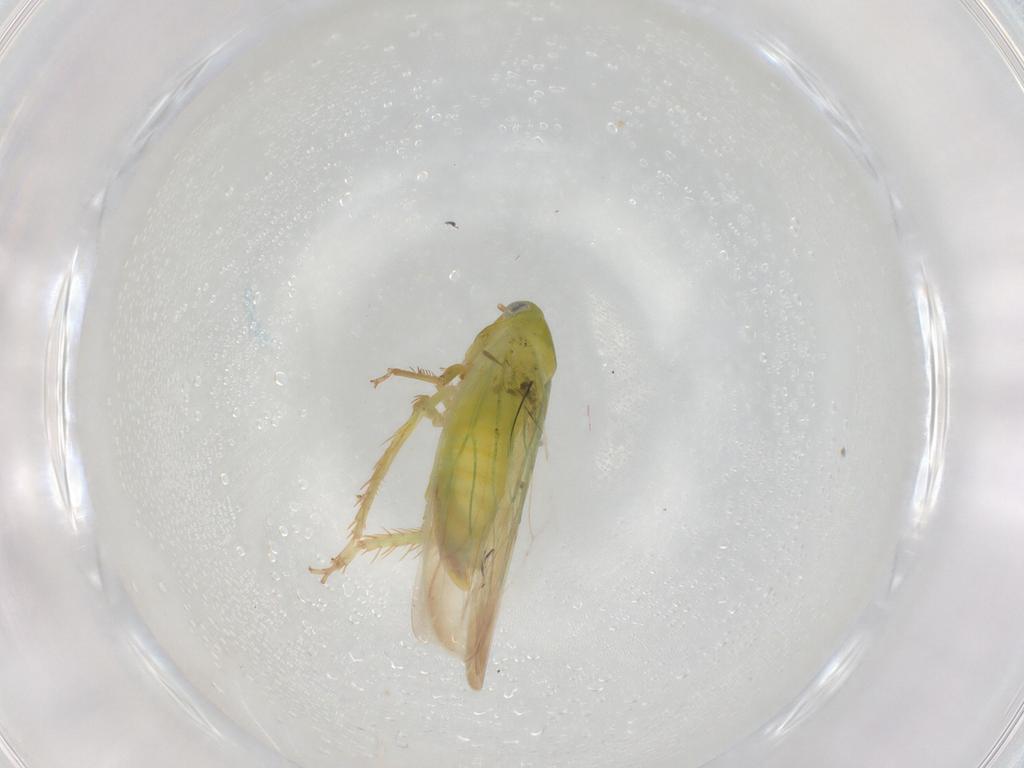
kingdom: Animalia
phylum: Arthropoda
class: Insecta
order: Hemiptera
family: Cicadellidae
